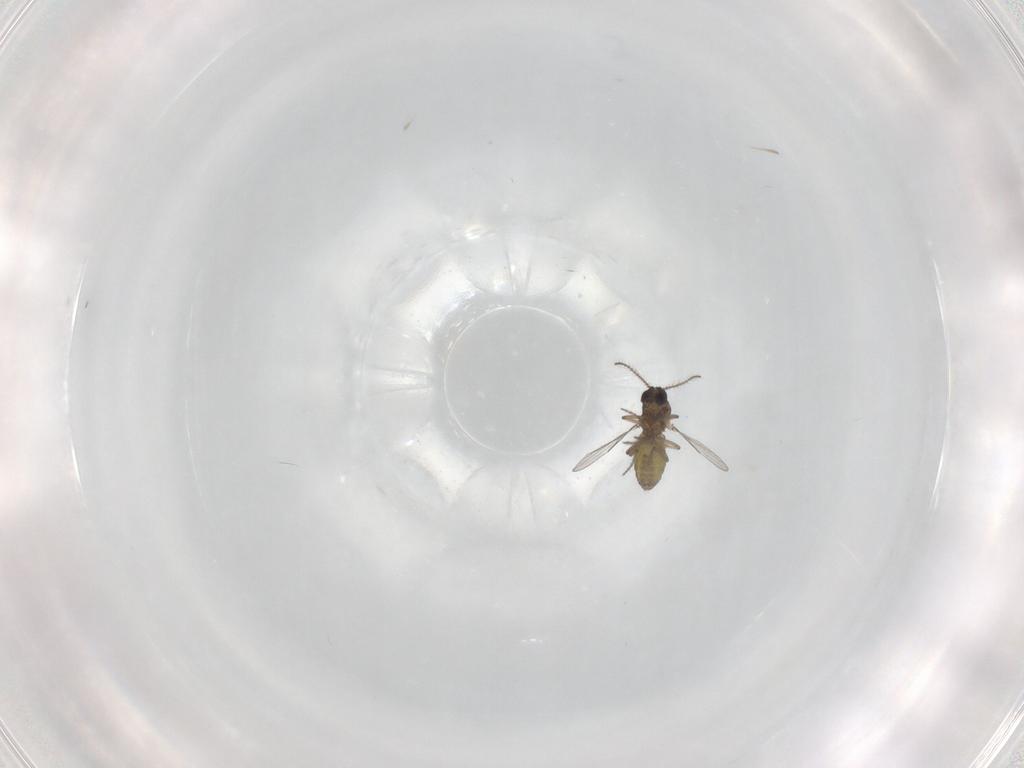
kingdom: Animalia
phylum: Arthropoda
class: Insecta
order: Diptera
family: Ceratopogonidae
